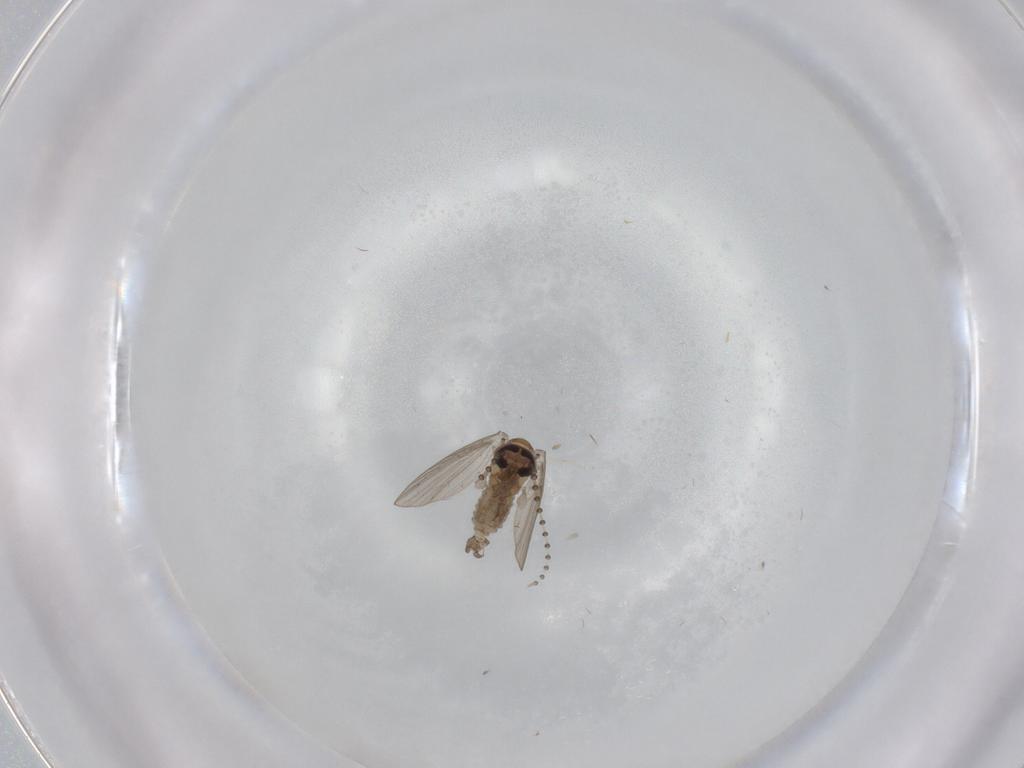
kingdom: Animalia
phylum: Arthropoda
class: Insecta
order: Diptera
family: Psychodidae
